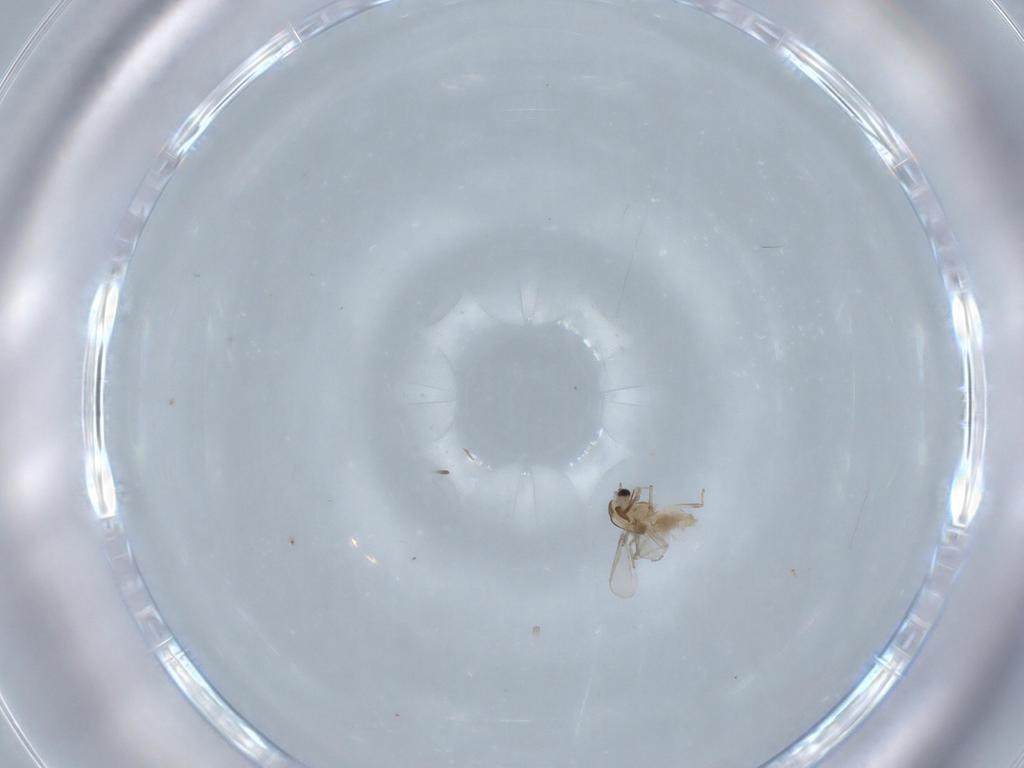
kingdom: Animalia
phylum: Arthropoda
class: Insecta
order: Diptera
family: Chironomidae
